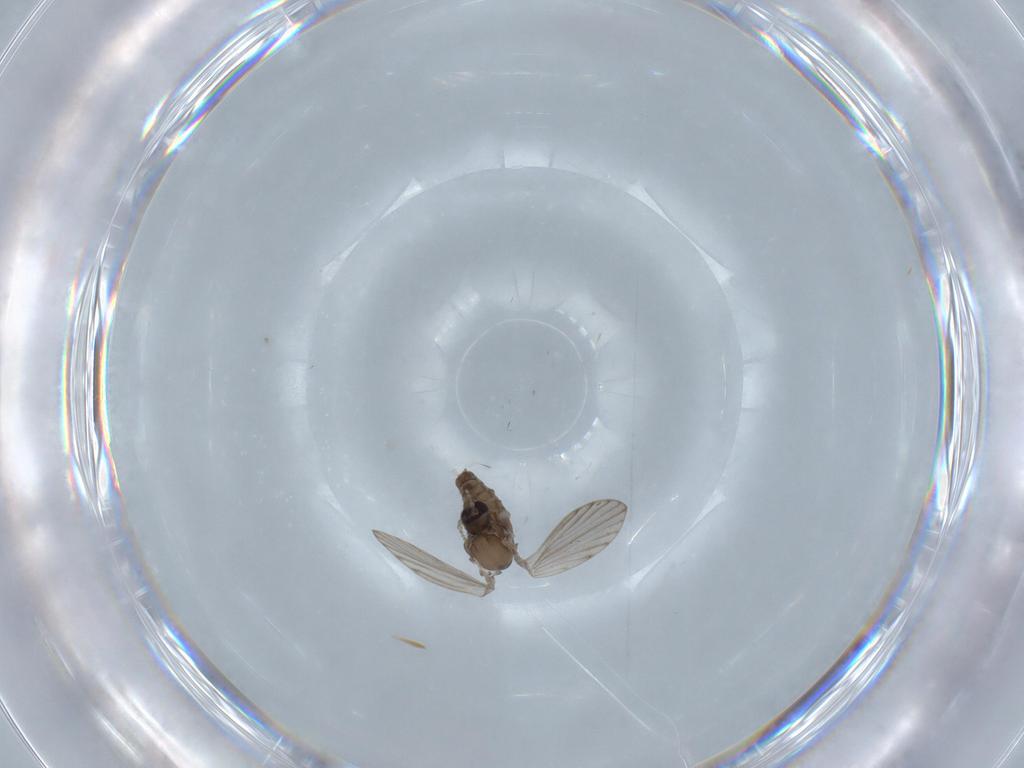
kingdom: Animalia
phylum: Arthropoda
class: Insecta
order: Diptera
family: Psychodidae
